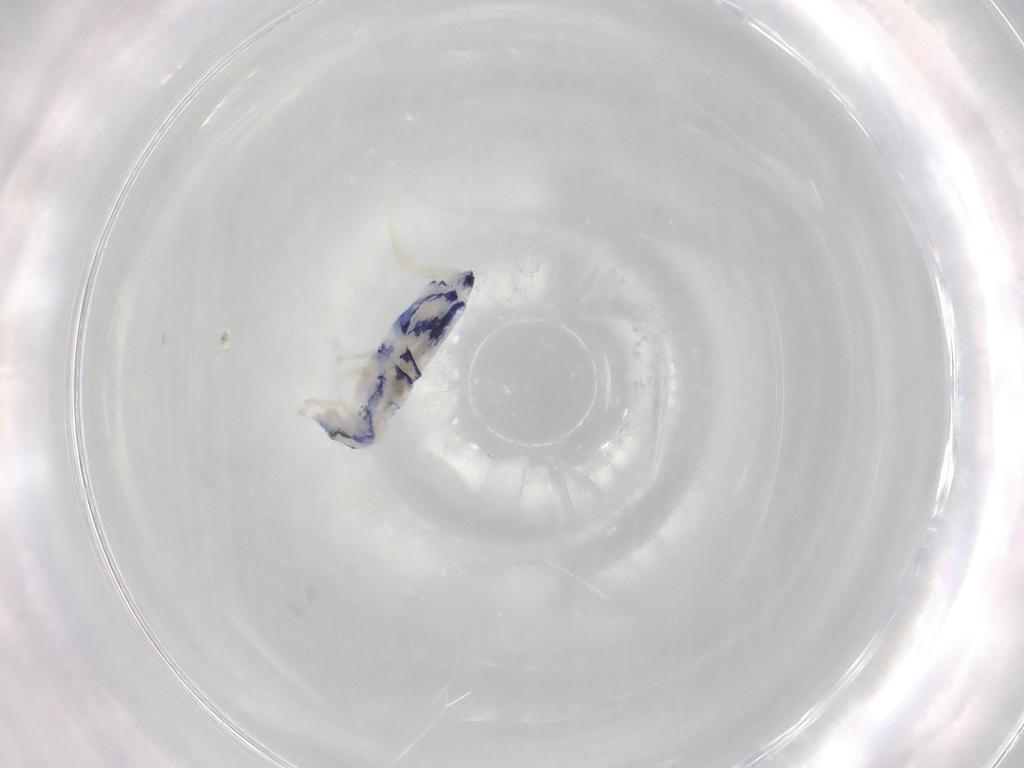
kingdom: Animalia
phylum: Arthropoda
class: Collembola
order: Entomobryomorpha
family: Entomobryidae
